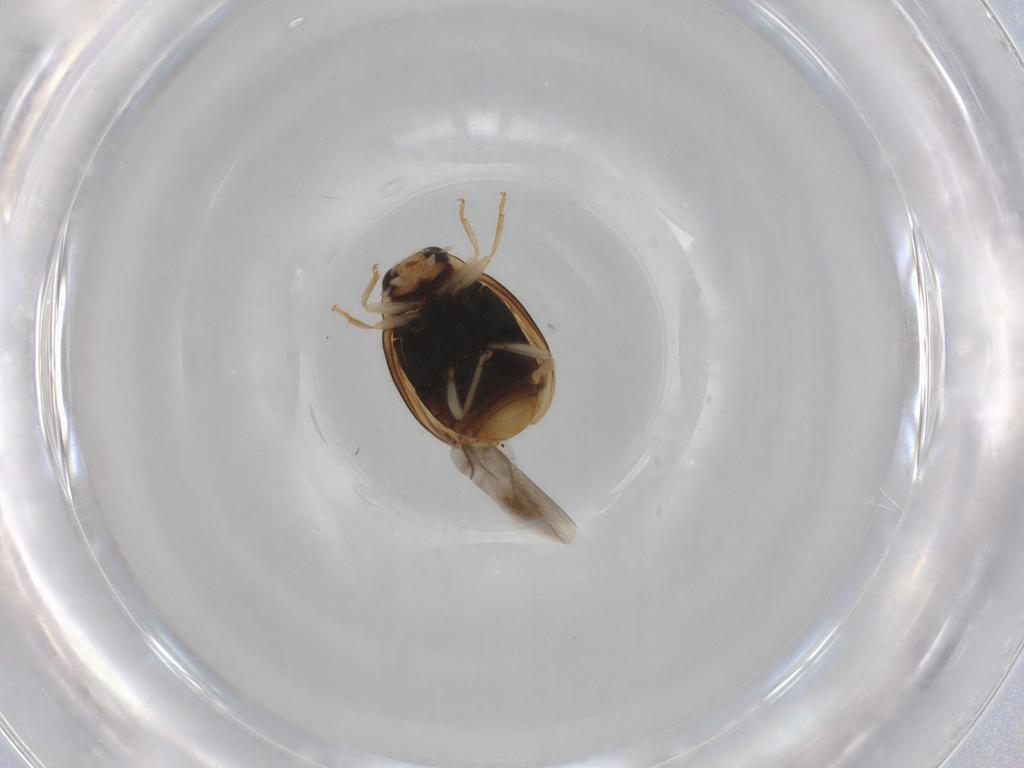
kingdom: Animalia
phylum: Arthropoda
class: Insecta
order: Coleoptera
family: Coccinellidae
